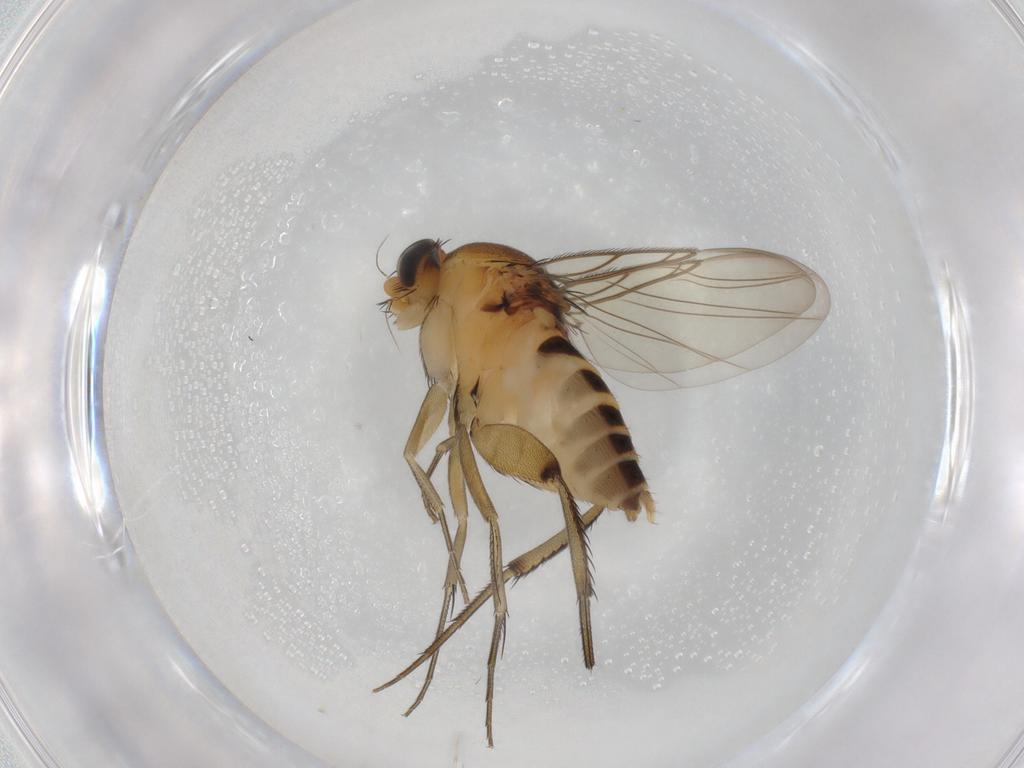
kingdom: Animalia
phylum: Arthropoda
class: Insecta
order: Diptera
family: Phoridae
